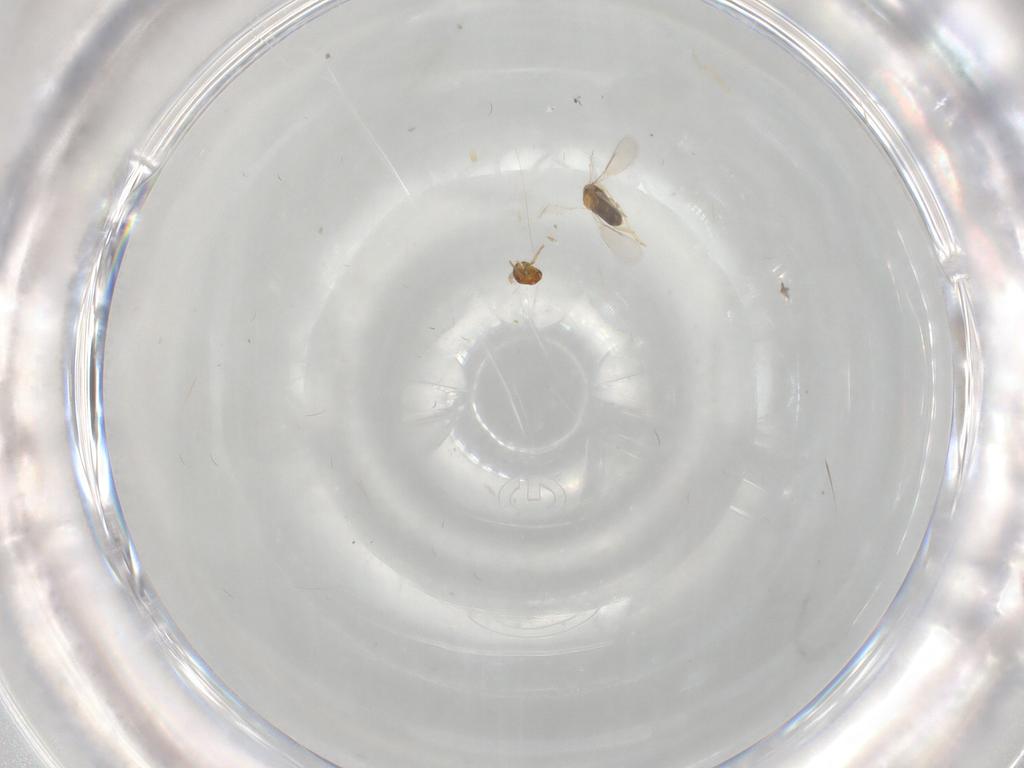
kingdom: Animalia
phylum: Arthropoda
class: Insecta
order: Hymenoptera
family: Aphelinidae
